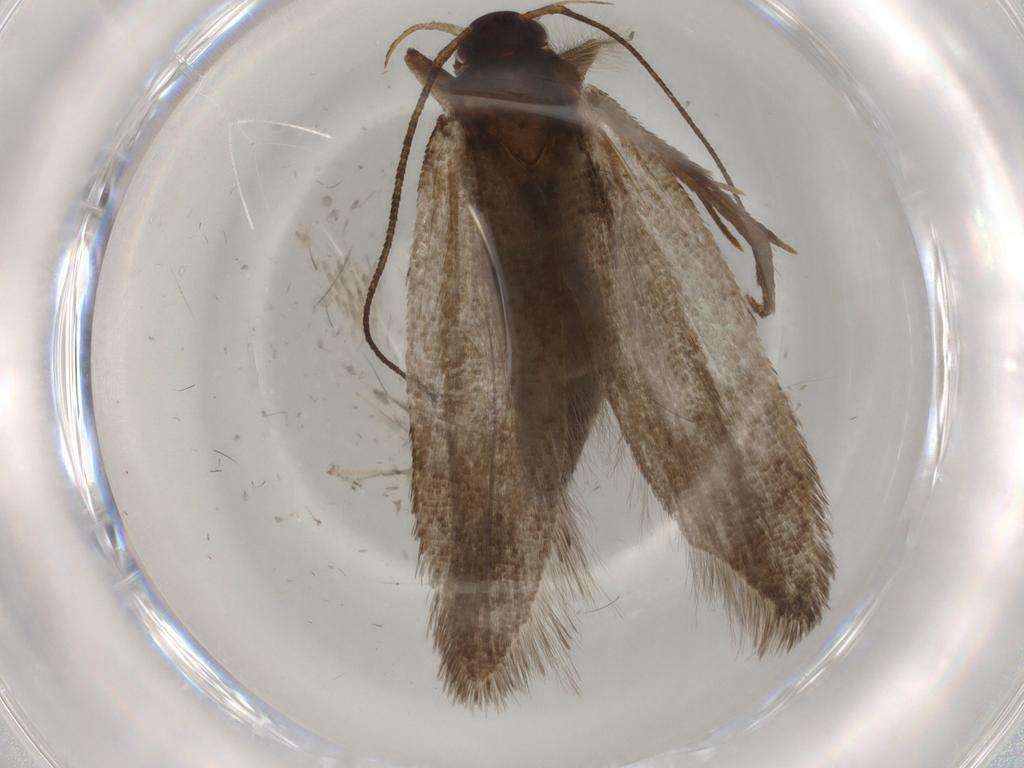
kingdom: Animalia
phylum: Arthropoda
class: Insecta
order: Lepidoptera
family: Gelechiidae
